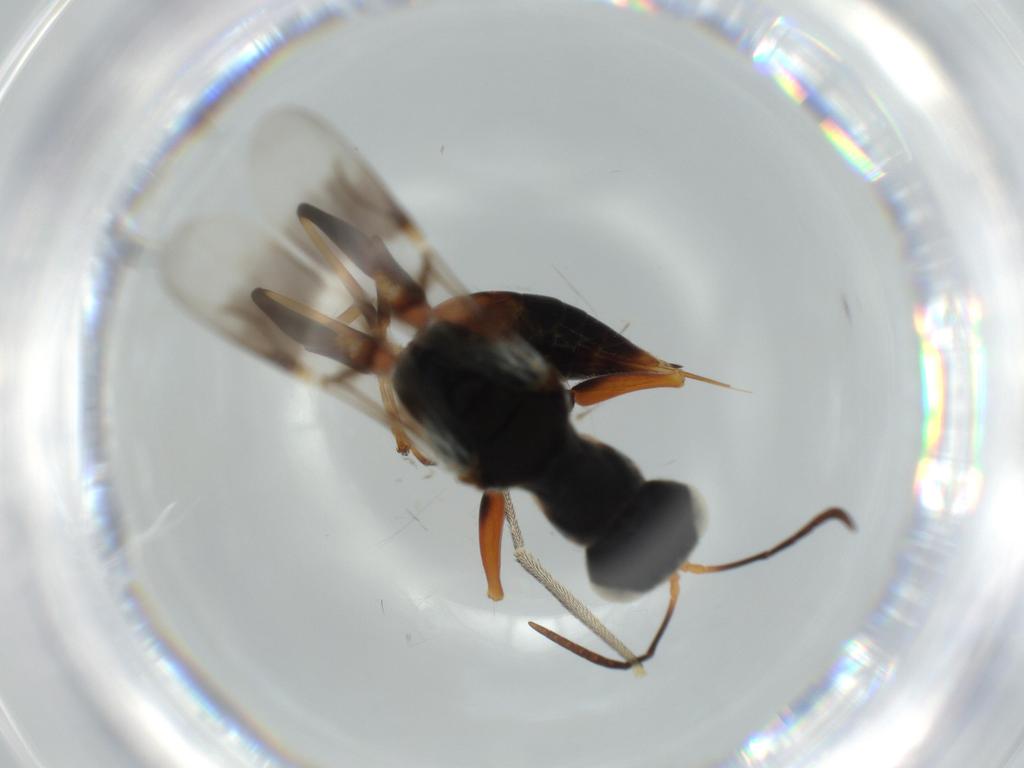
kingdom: Animalia
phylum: Arthropoda
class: Insecta
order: Hymenoptera
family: Dryinidae
